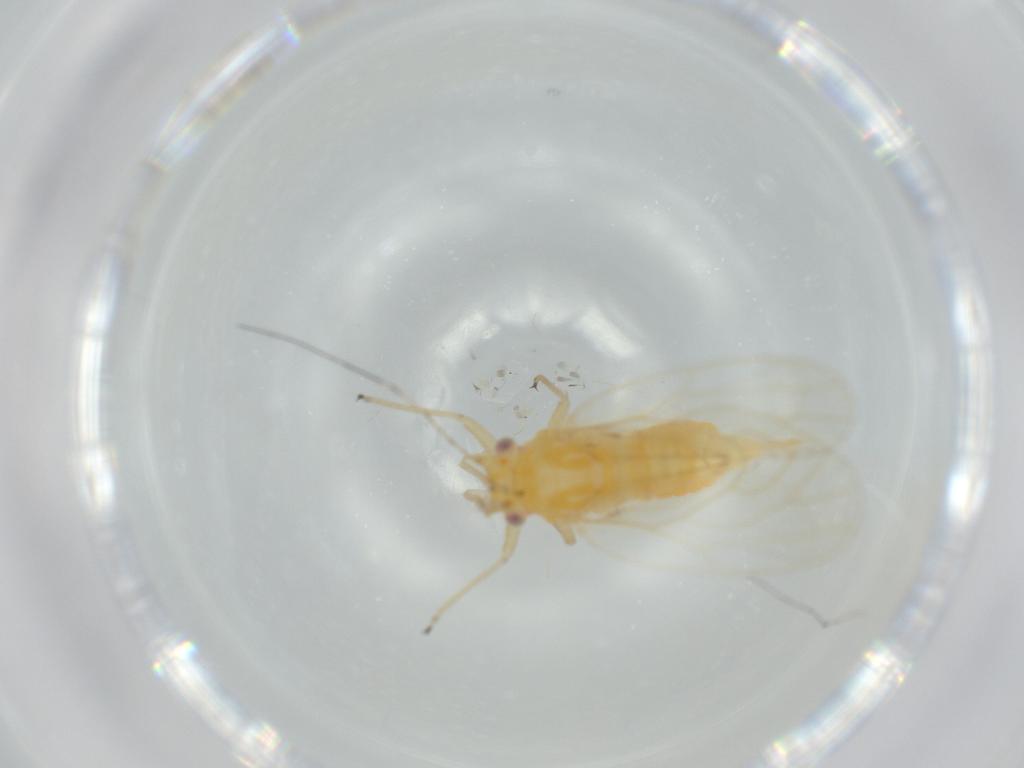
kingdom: Animalia
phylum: Arthropoda
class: Insecta
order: Hemiptera
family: Psyllidae
